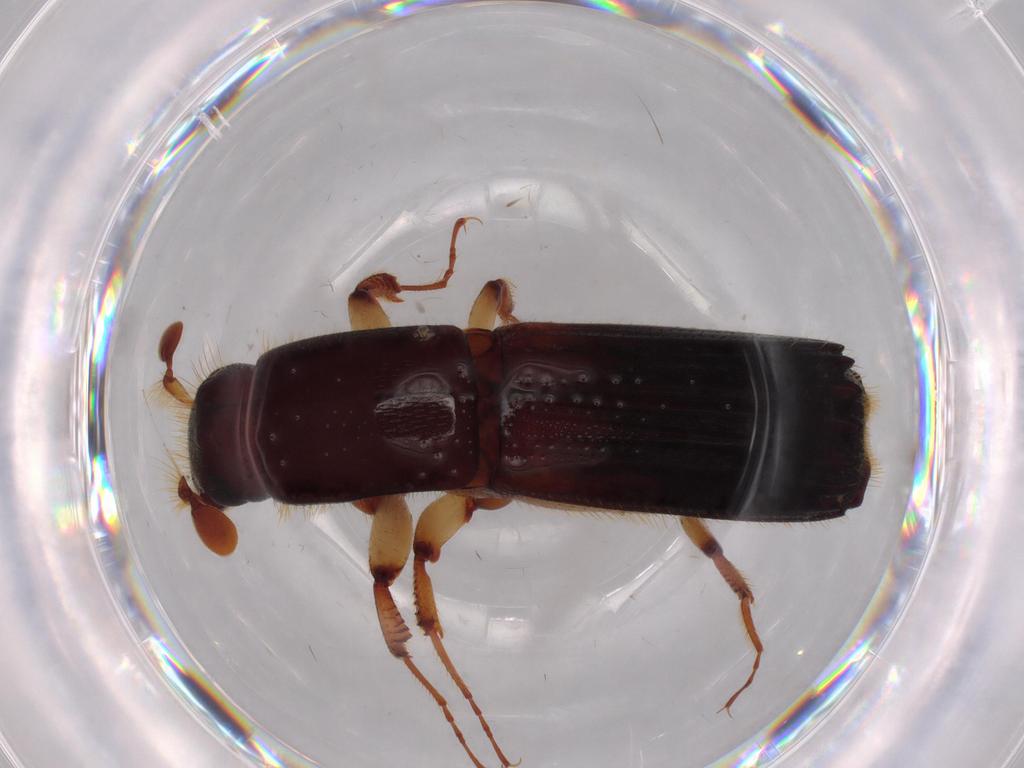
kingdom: Animalia
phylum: Arthropoda
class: Insecta
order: Coleoptera
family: Curculionidae
